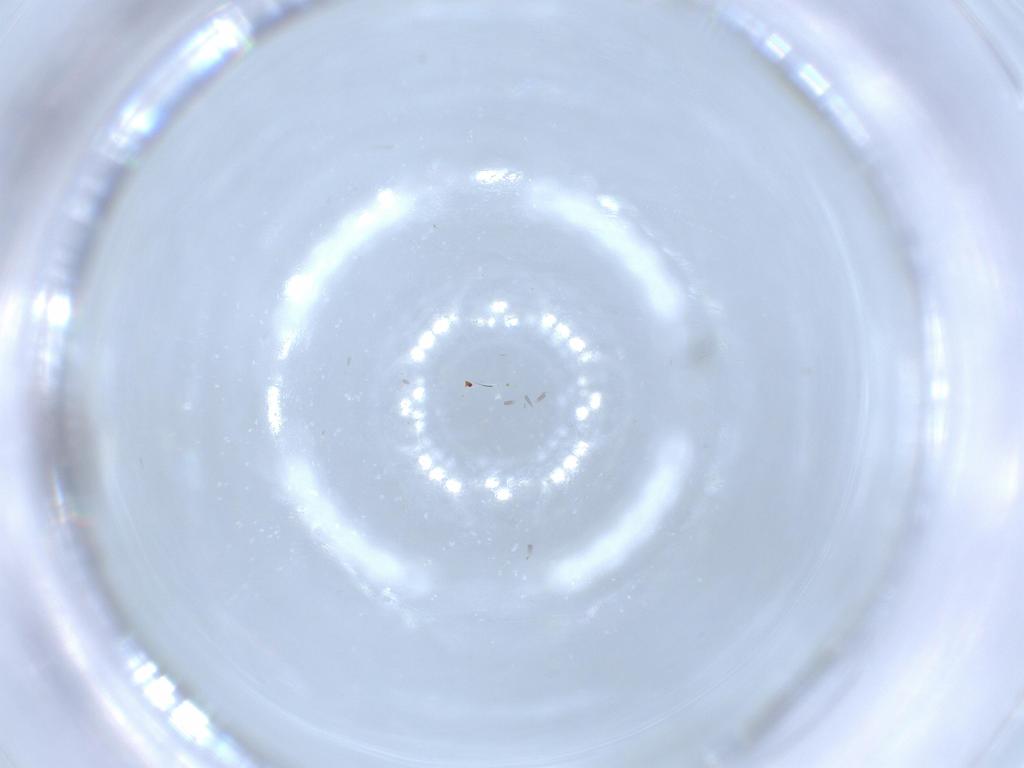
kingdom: Animalia
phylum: Arthropoda
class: Insecta
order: Diptera
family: Psychodidae
